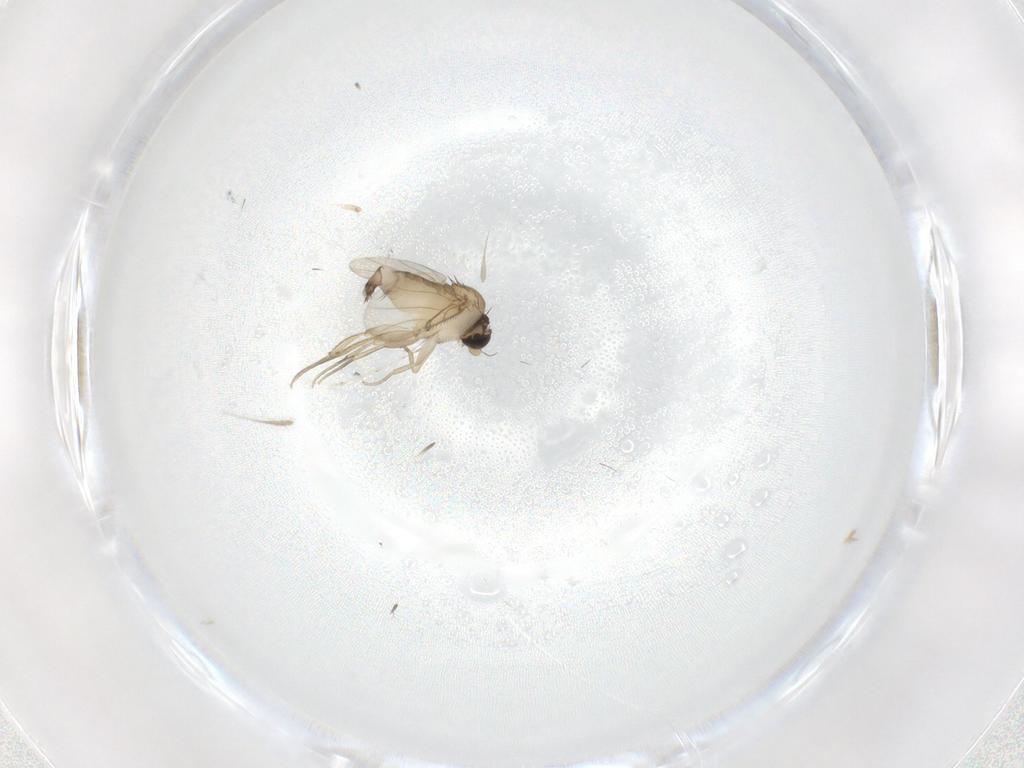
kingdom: Animalia
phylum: Arthropoda
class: Insecta
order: Diptera
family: Phoridae
